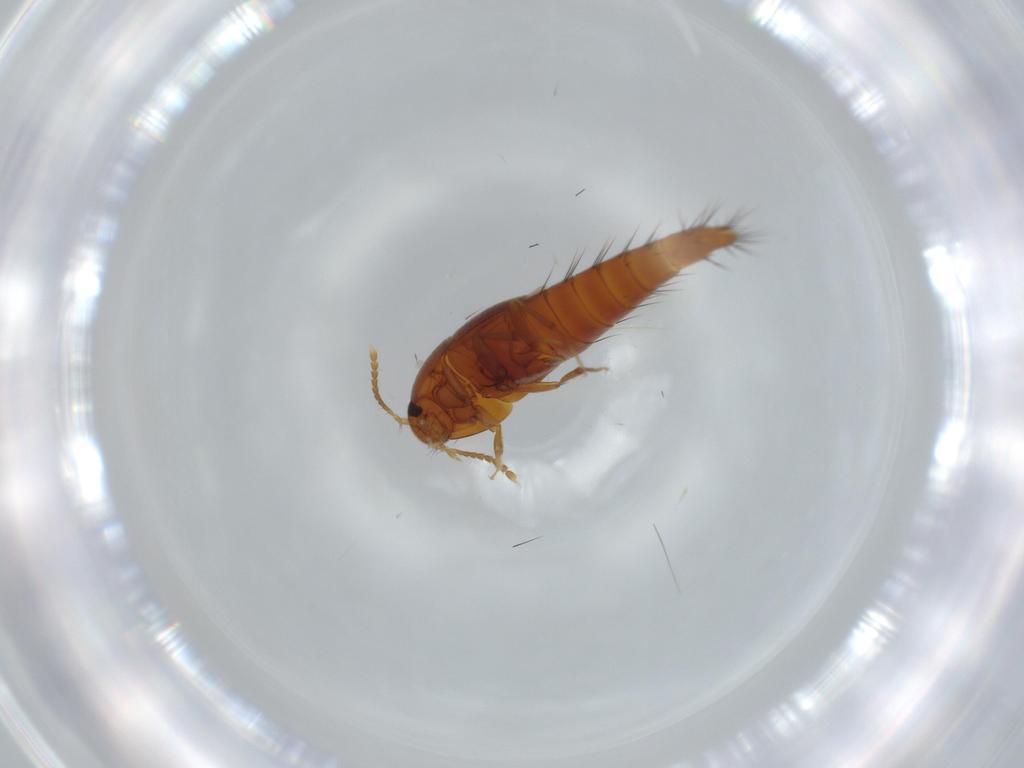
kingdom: Animalia
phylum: Arthropoda
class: Insecta
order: Coleoptera
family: Staphylinidae
